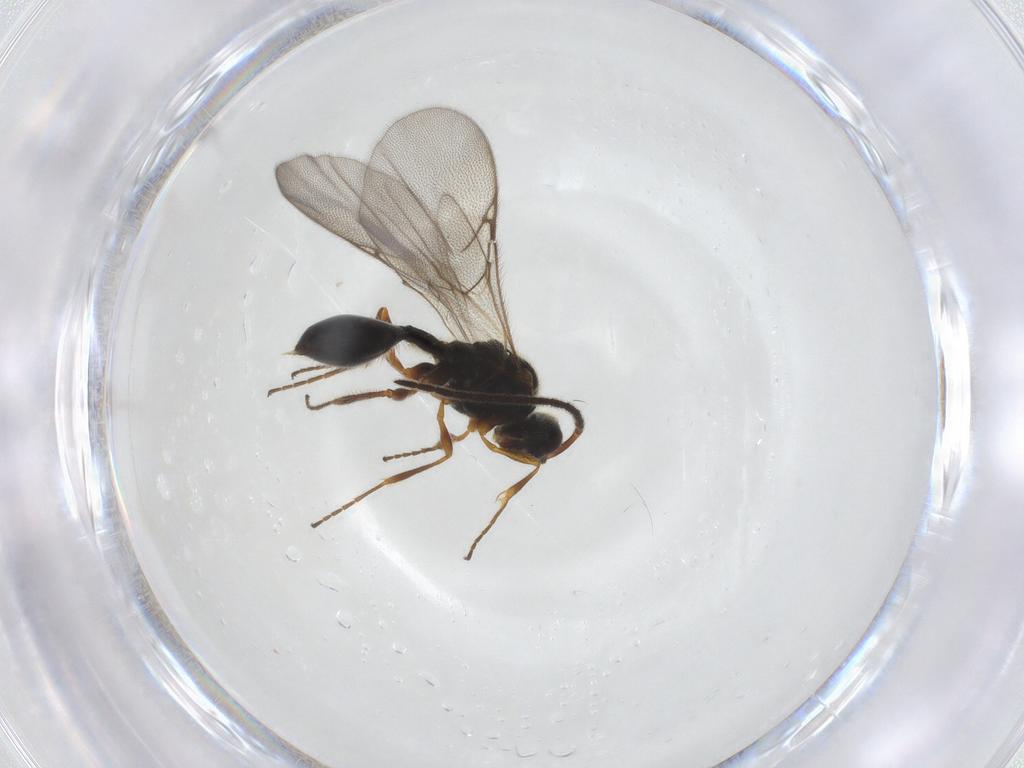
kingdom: Animalia
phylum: Arthropoda
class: Insecta
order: Hymenoptera
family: Diapriidae
